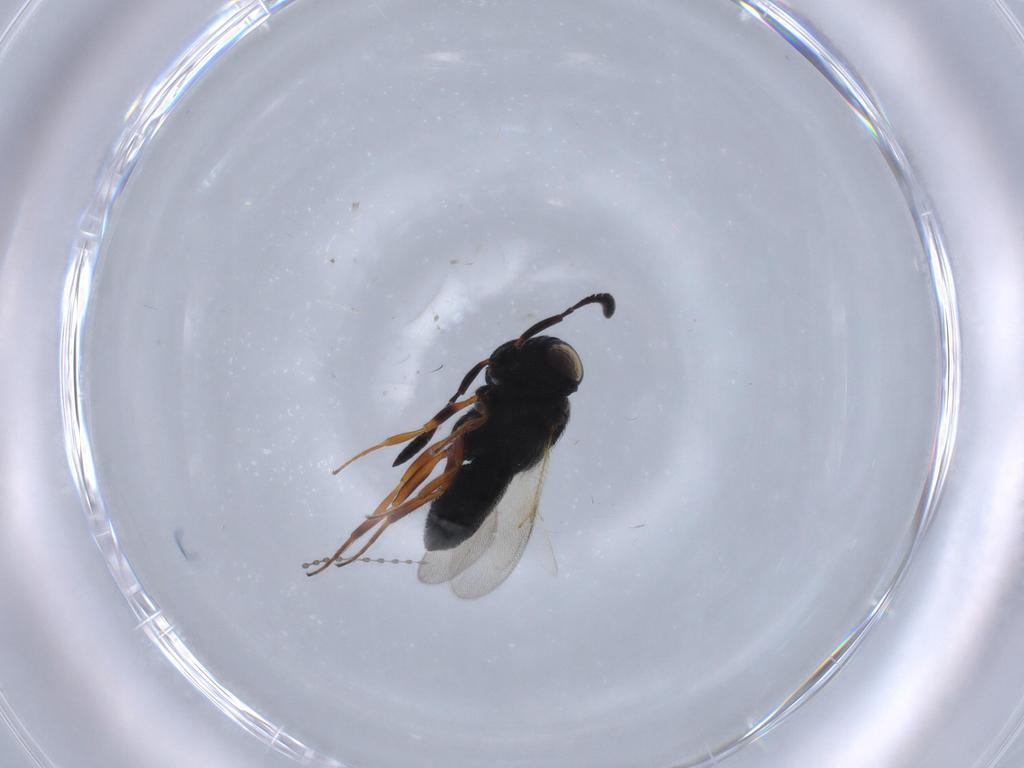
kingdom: Animalia
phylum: Arthropoda
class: Insecta
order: Hymenoptera
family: Scelionidae
